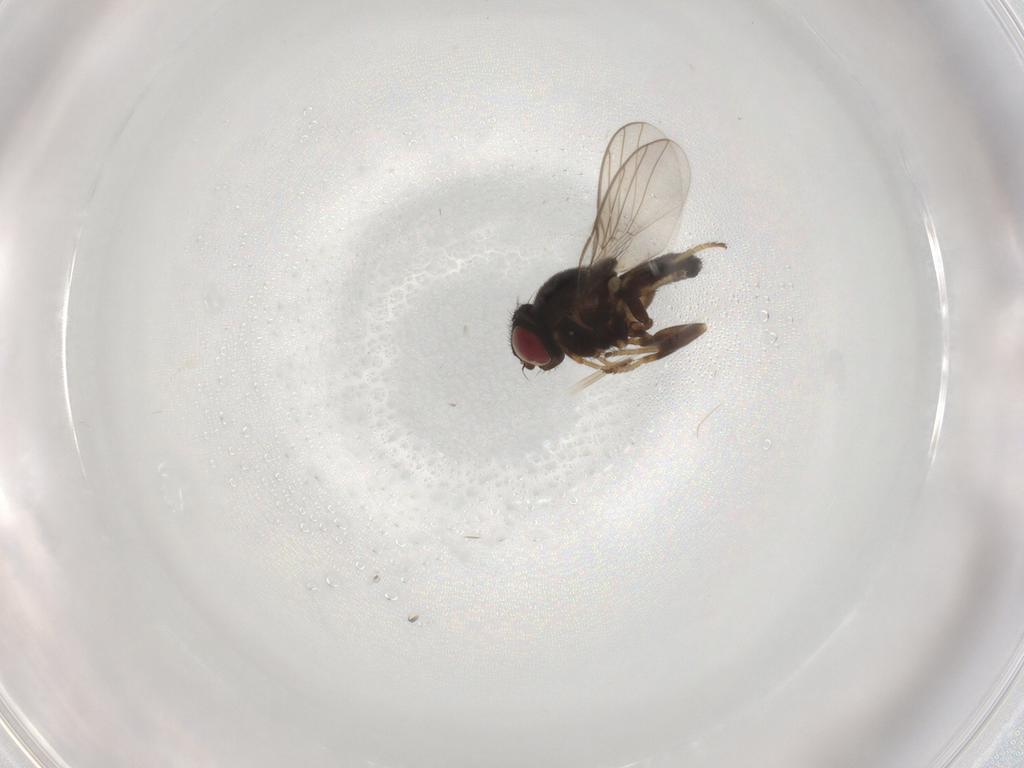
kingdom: Animalia
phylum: Arthropoda
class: Insecta
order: Diptera
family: Chloropidae
